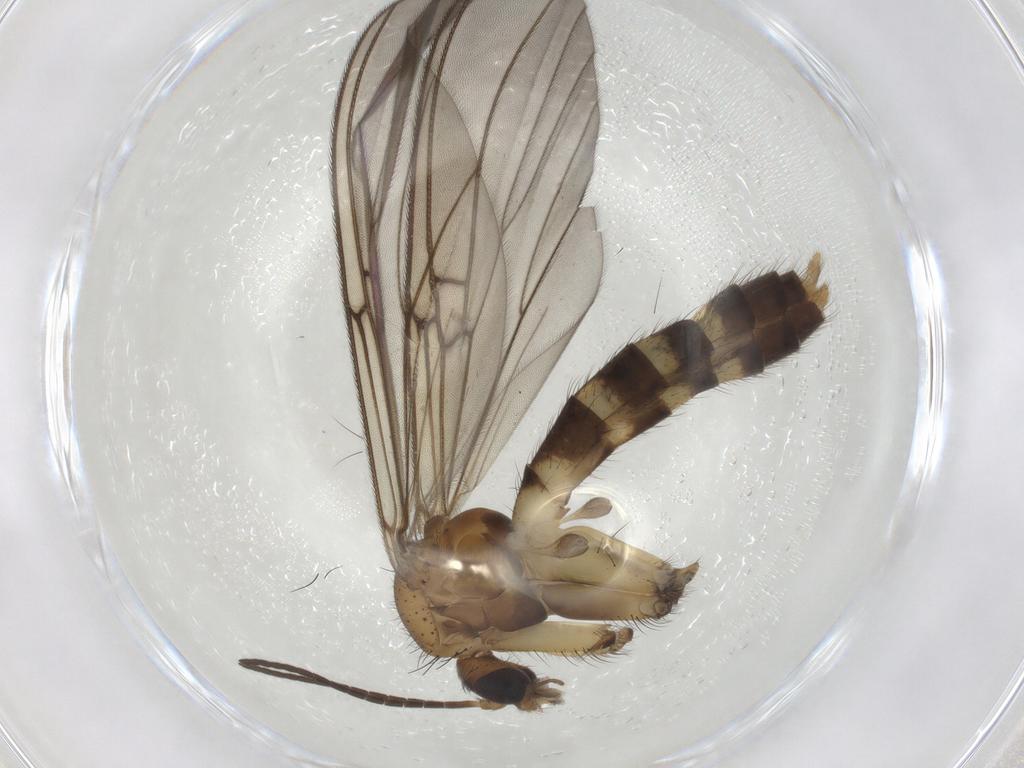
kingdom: Animalia
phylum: Arthropoda
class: Insecta
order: Diptera
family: Mycetophilidae
